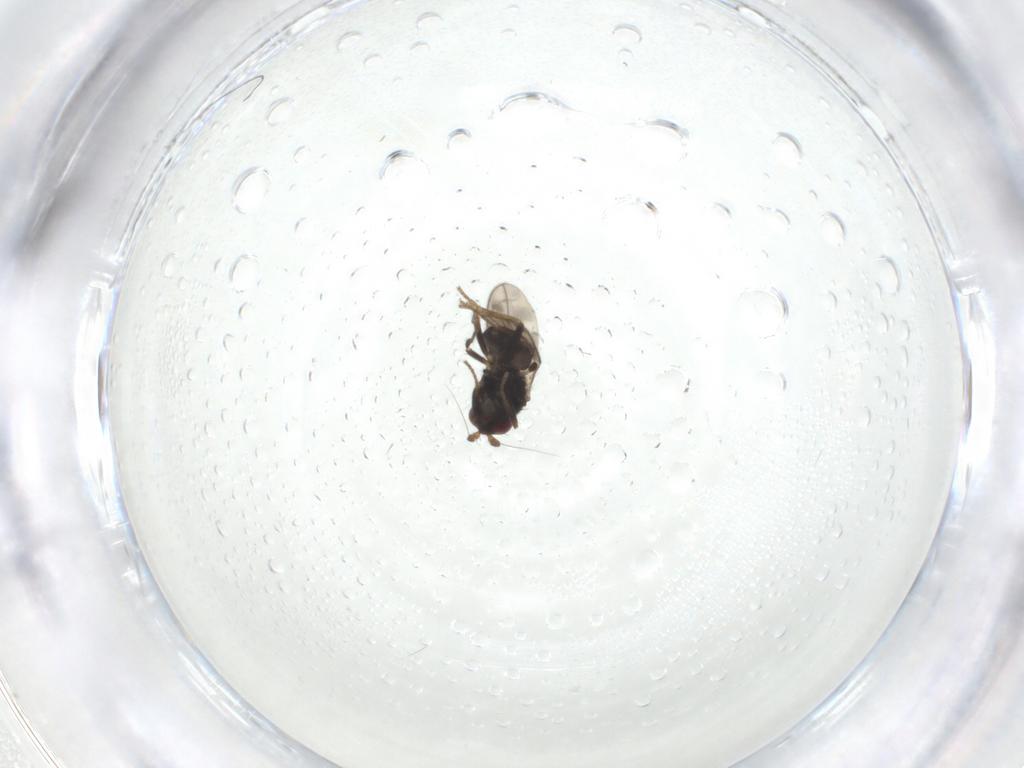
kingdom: Animalia
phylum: Arthropoda
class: Insecta
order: Diptera
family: Sphaeroceridae
